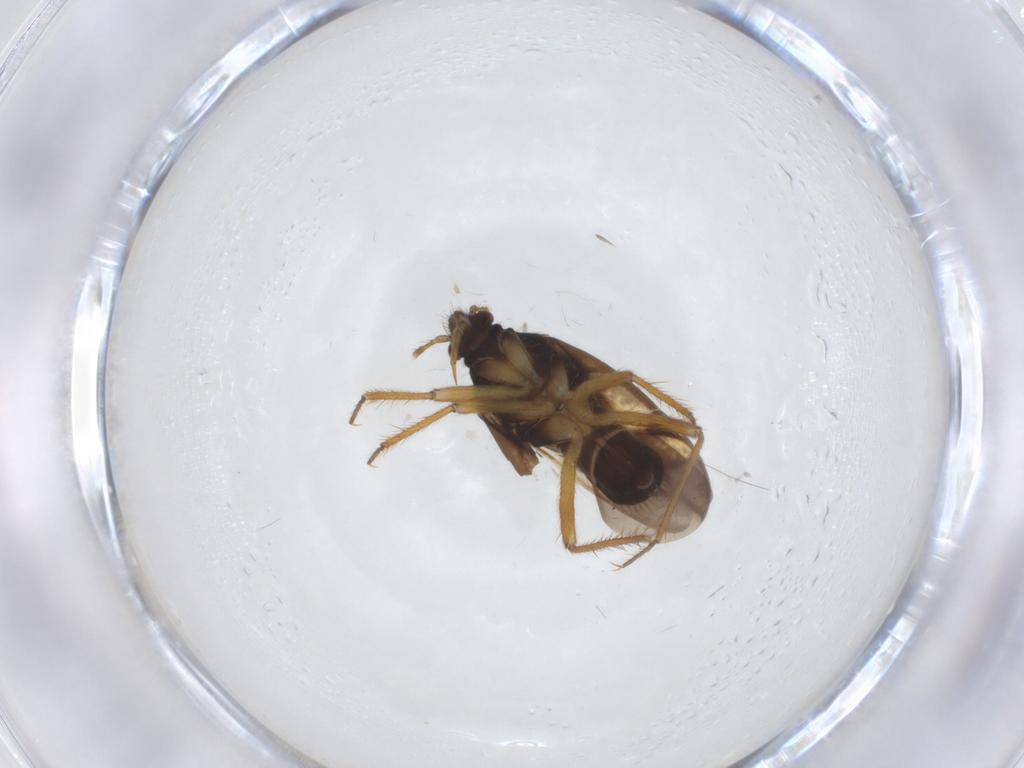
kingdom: Animalia
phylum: Arthropoda
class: Insecta
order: Hemiptera
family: Ceratocombidae
